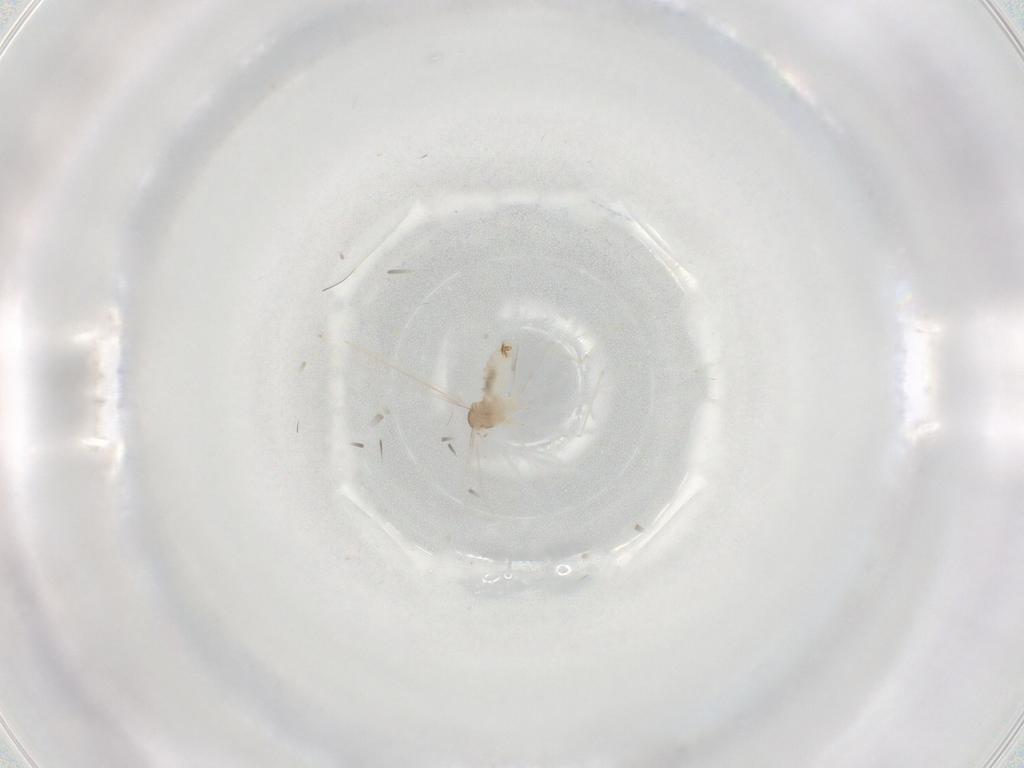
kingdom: Animalia
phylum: Arthropoda
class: Insecta
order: Diptera
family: Cecidomyiidae
